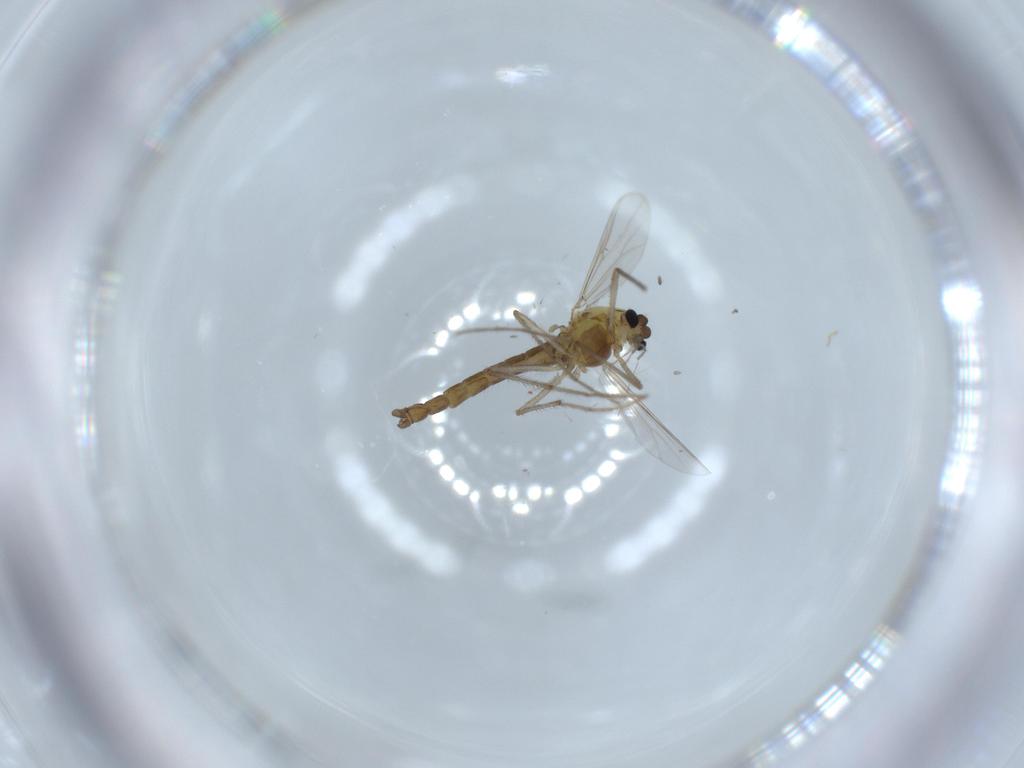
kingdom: Animalia
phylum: Arthropoda
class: Insecta
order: Diptera
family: Chironomidae
